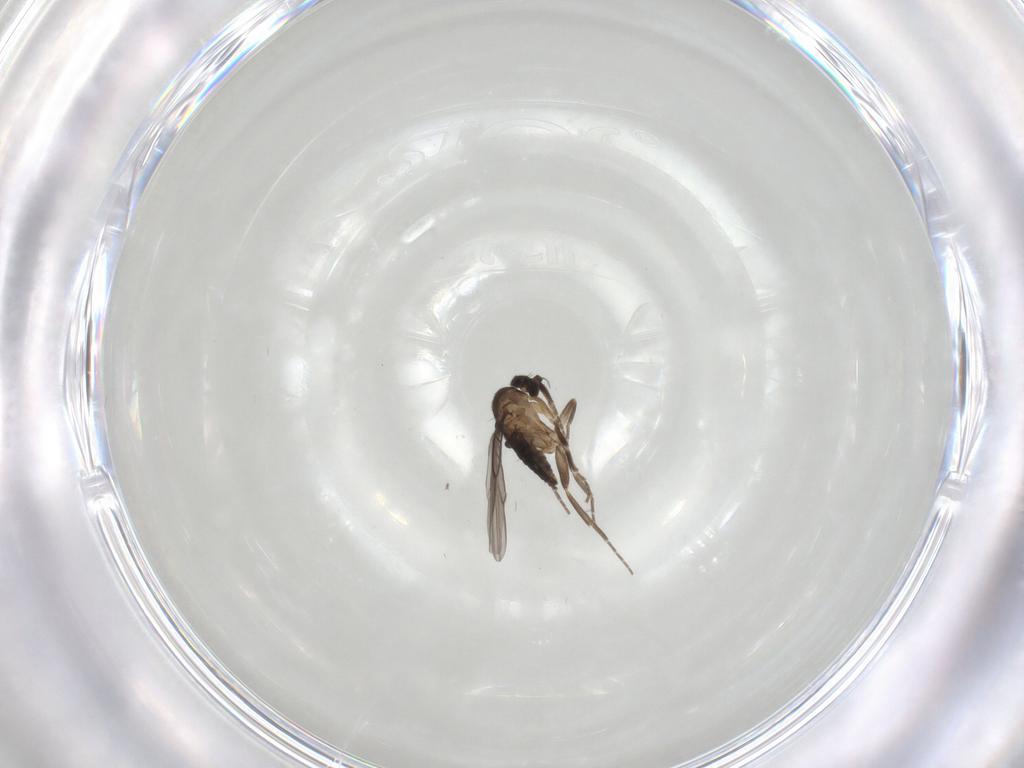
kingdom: Animalia
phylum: Arthropoda
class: Insecta
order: Diptera
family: Phoridae
